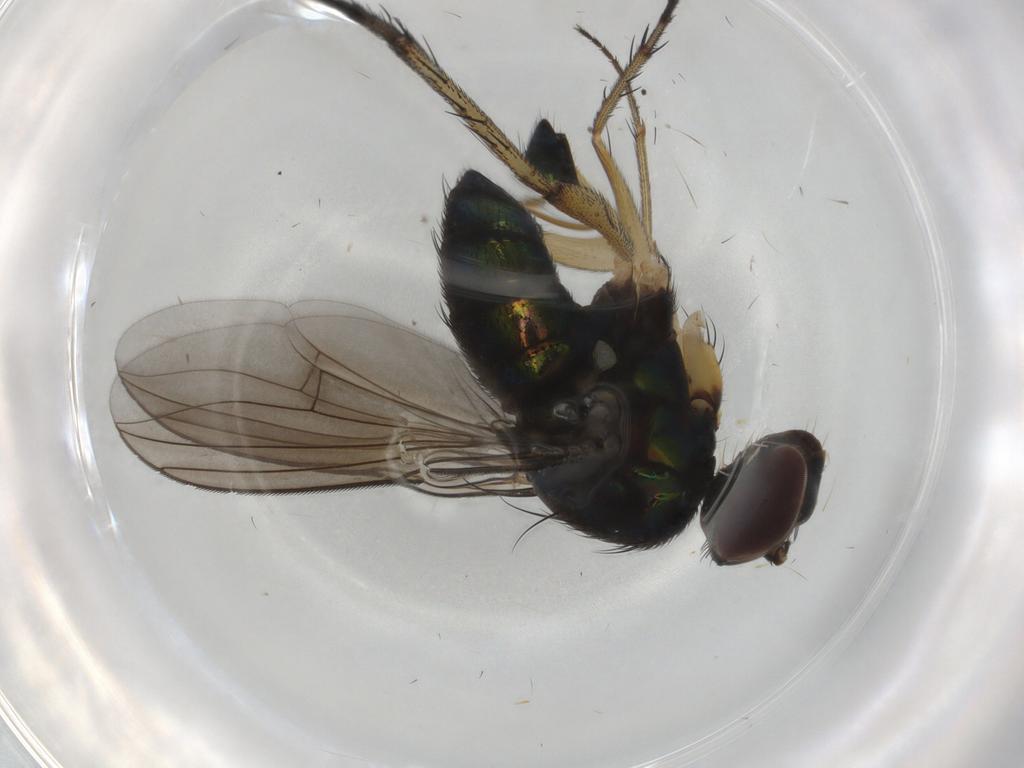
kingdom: Animalia
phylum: Arthropoda
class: Insecta
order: Diptera
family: Dolichopodidae
